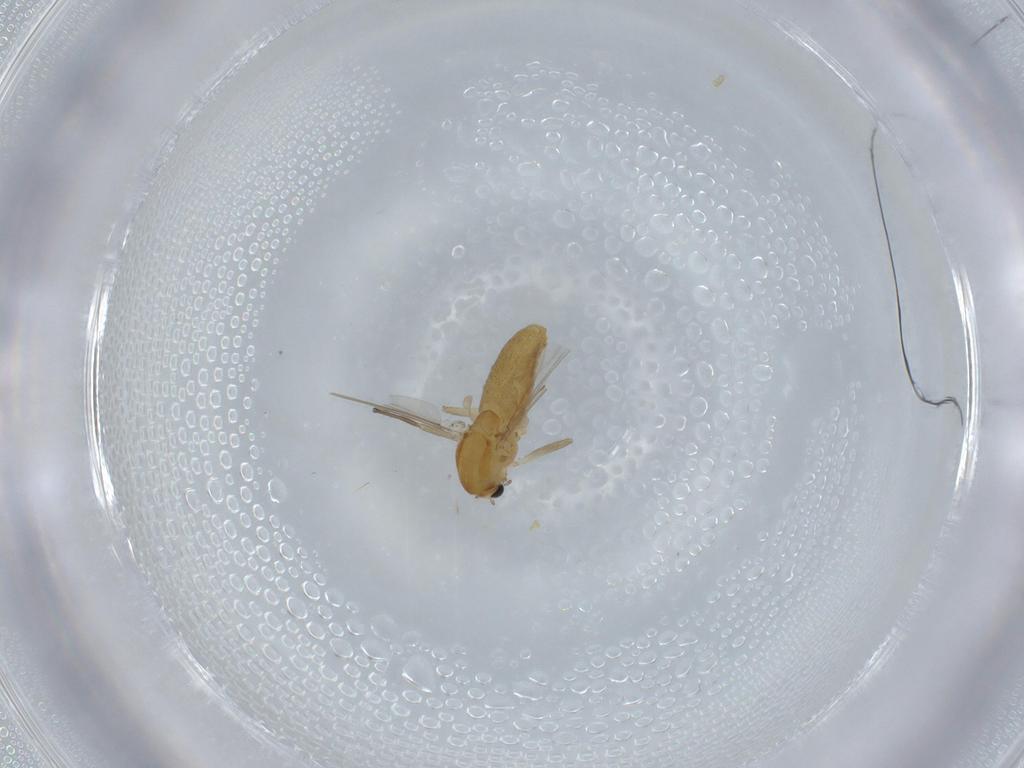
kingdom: Animalia
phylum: Arthropoda
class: Insecta
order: Diptera
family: Chironomidae
